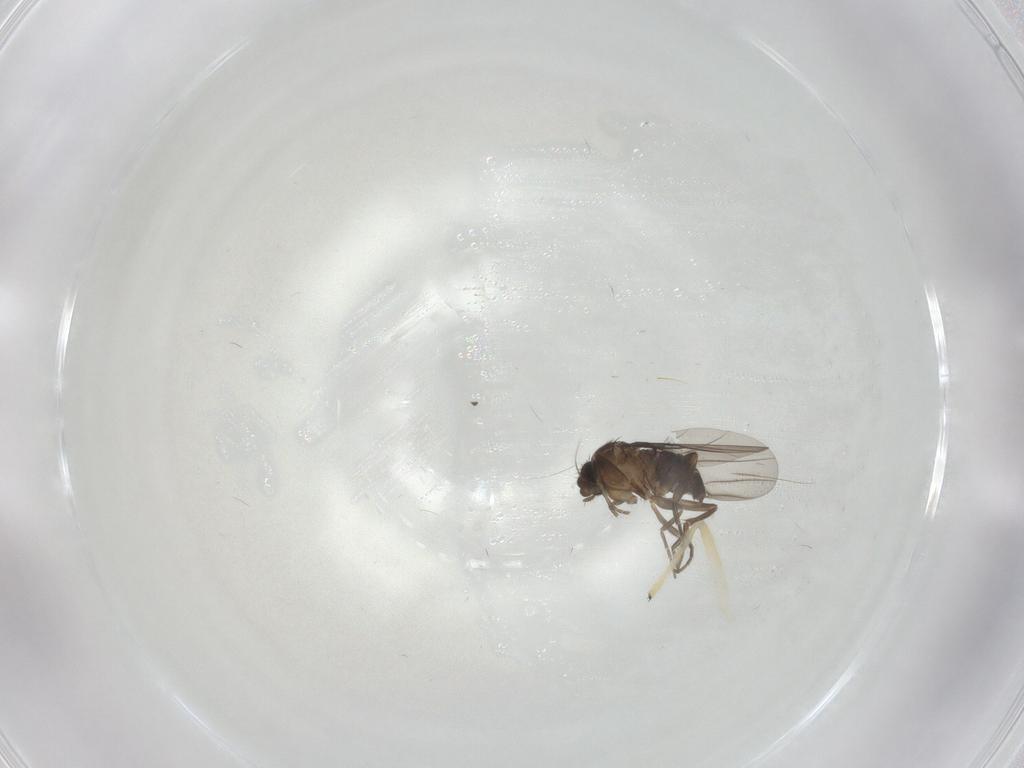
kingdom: Animalia
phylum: Arthropoda
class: Insecta
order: Diptera
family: Chironomidae
